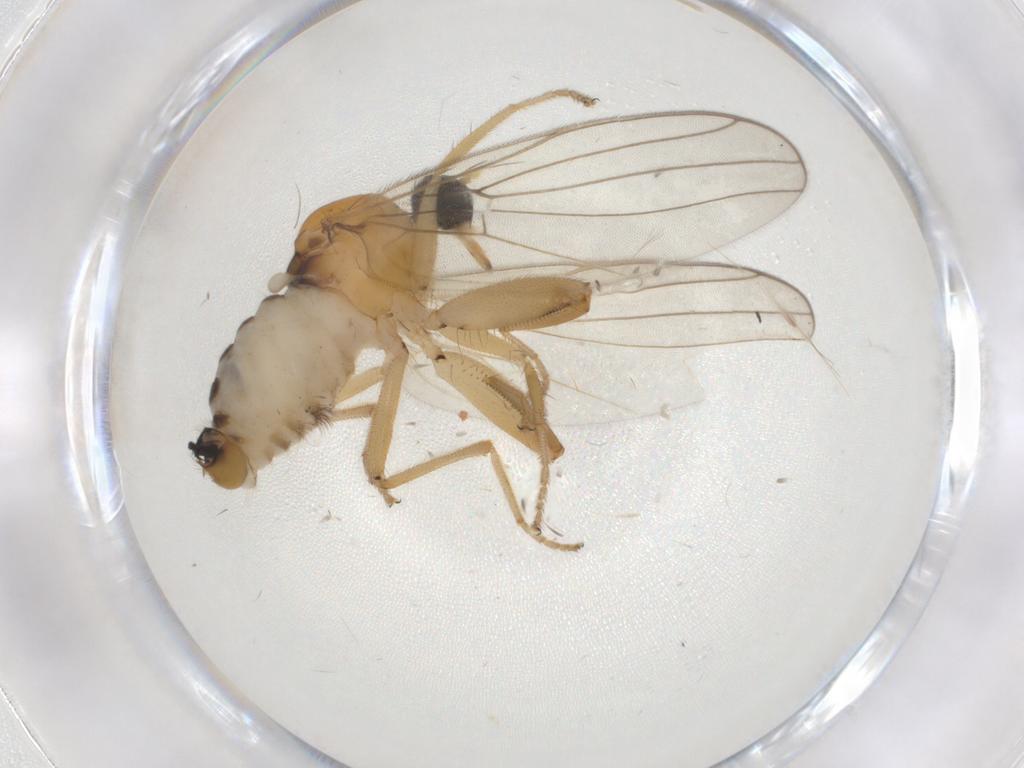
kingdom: Animalia
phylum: Arthropoda
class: Insecta
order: Diptera
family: Hybotidae
